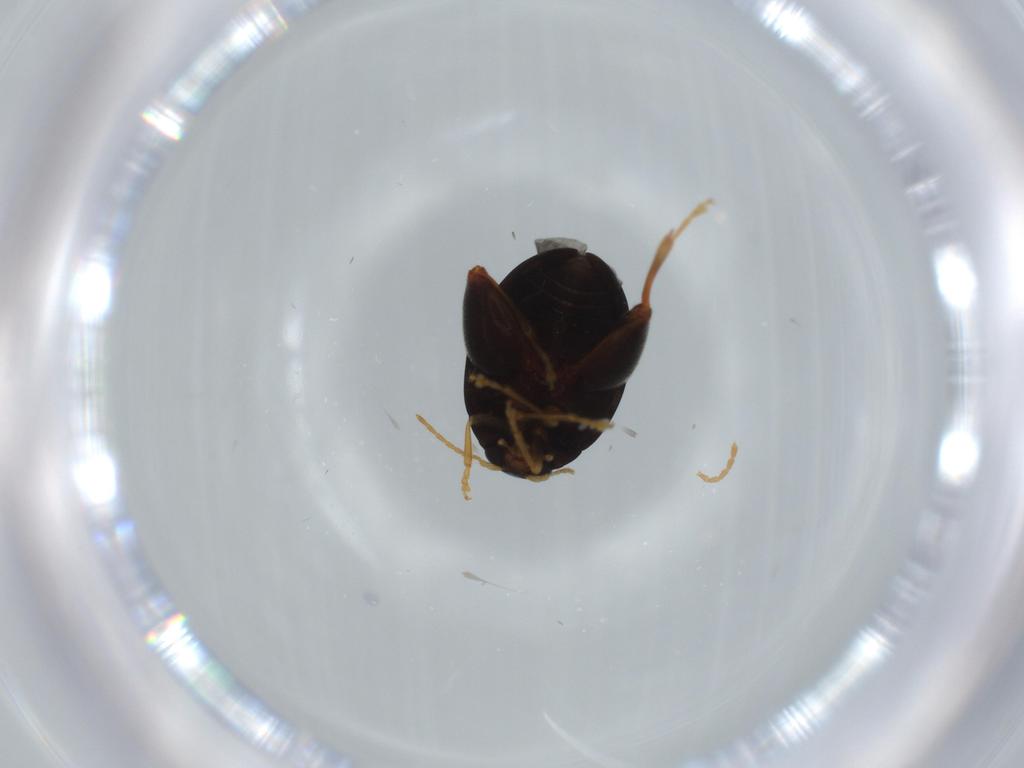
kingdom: Animalia
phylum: Arthropoda
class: Insecta
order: Coleoptera
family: Chrysomelidae
